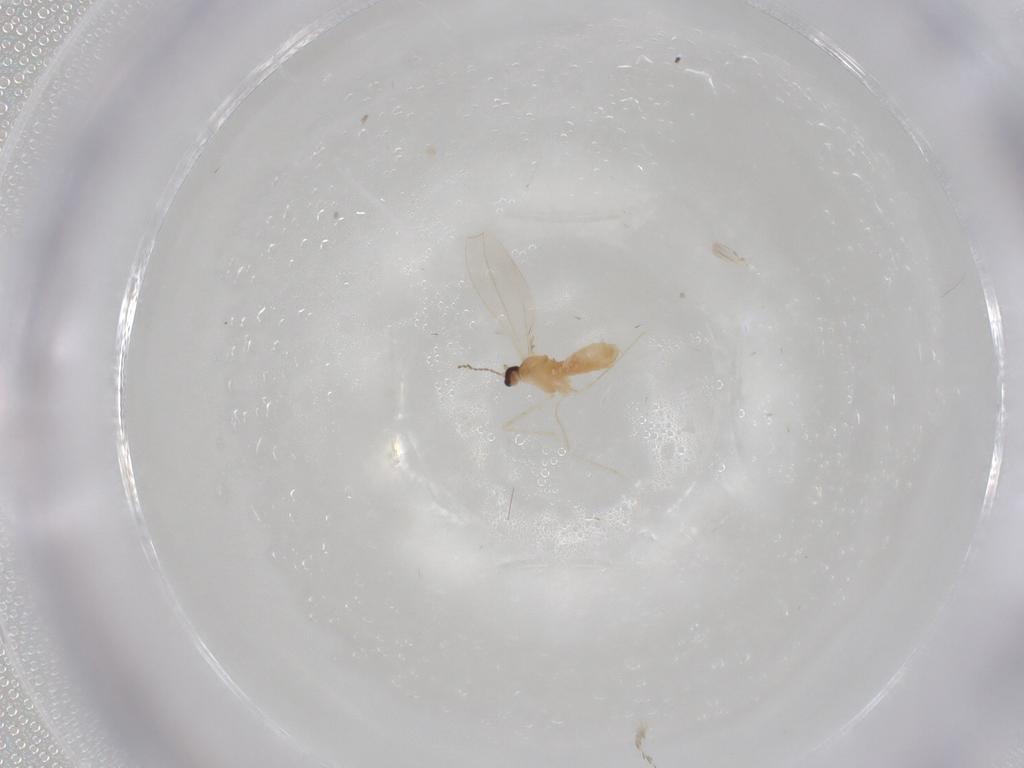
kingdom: Animalia
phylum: Arthropoda
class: Insecta
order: Diptera
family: Cecidomyiidae
